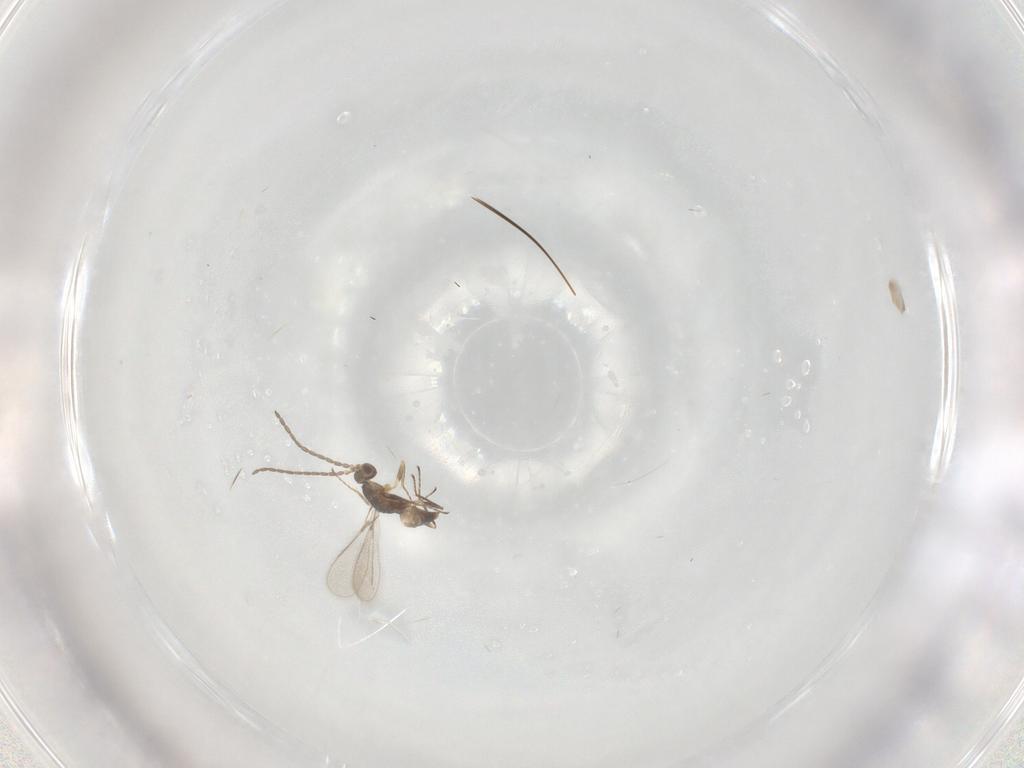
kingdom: Animalia
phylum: Arthropoda
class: Insecta
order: Hymenoptera
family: Mymaridae
